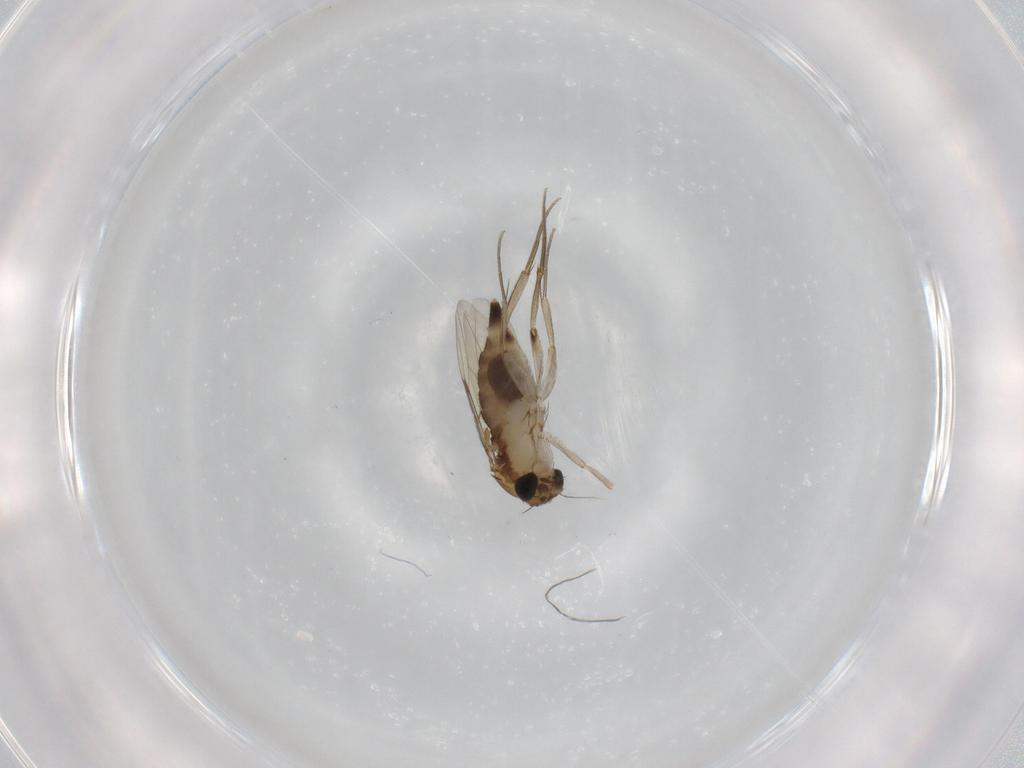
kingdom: Animalia
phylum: Arthropoda
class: Insecta
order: Diptera
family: Phoridae
